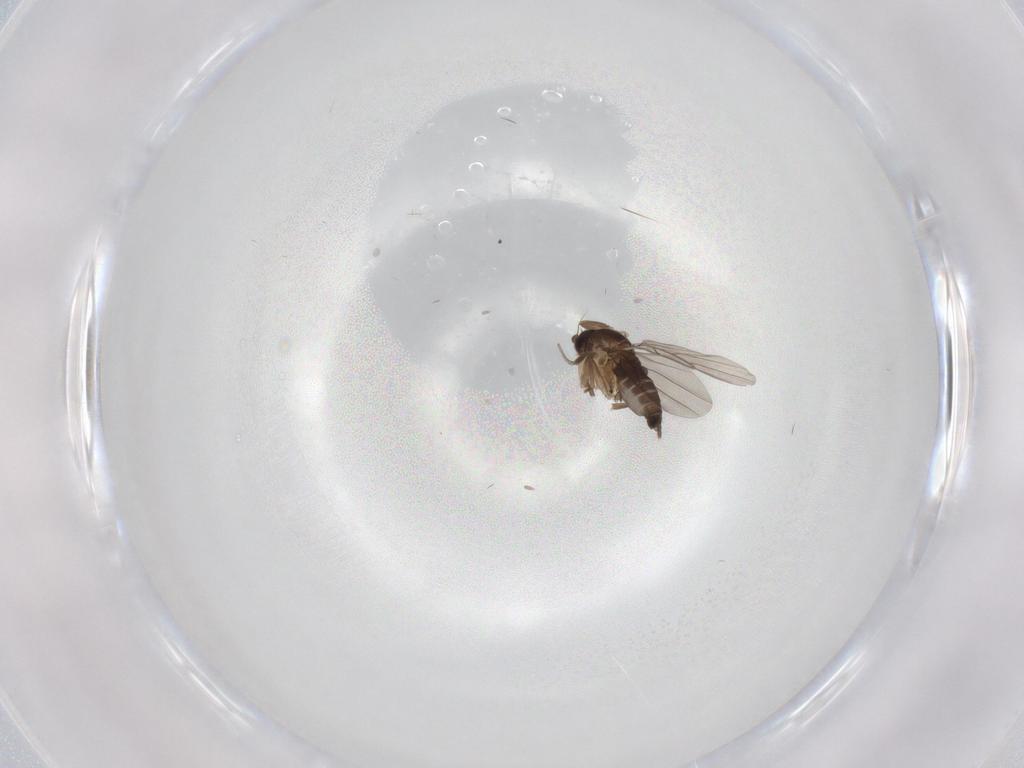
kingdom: Animalia
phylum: Arthropoda
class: Insecta
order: Diptera
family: Phoridae
